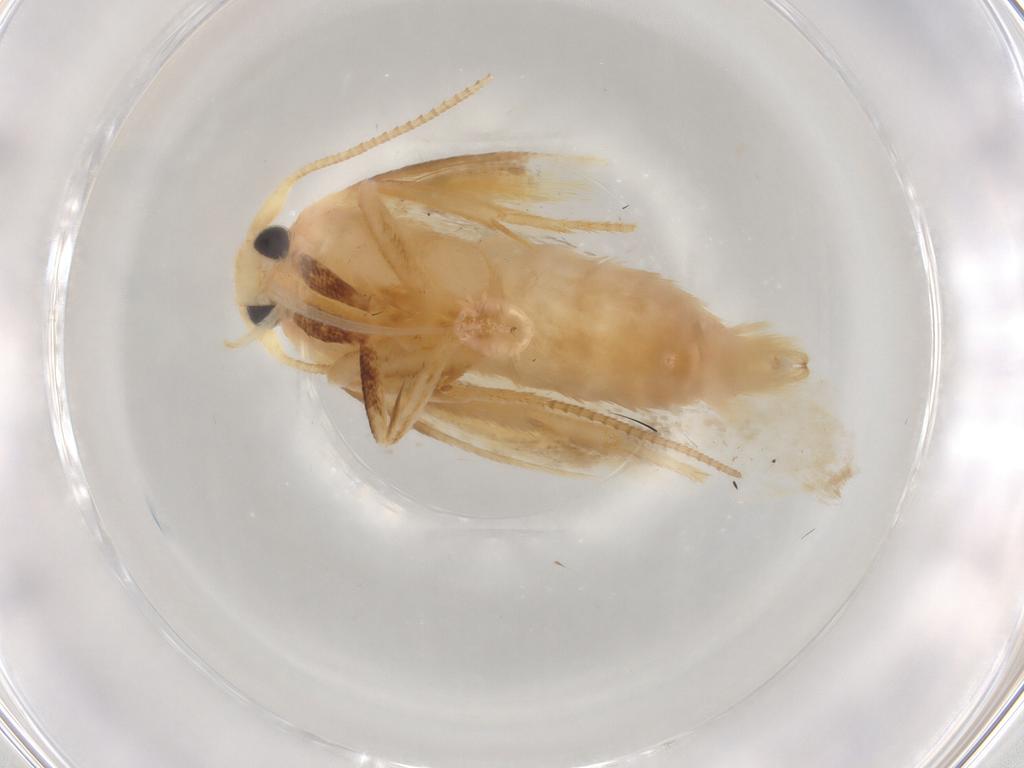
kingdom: Animalia
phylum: Arthropoda
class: Insecta
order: Lepidoptera
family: Geometridae
